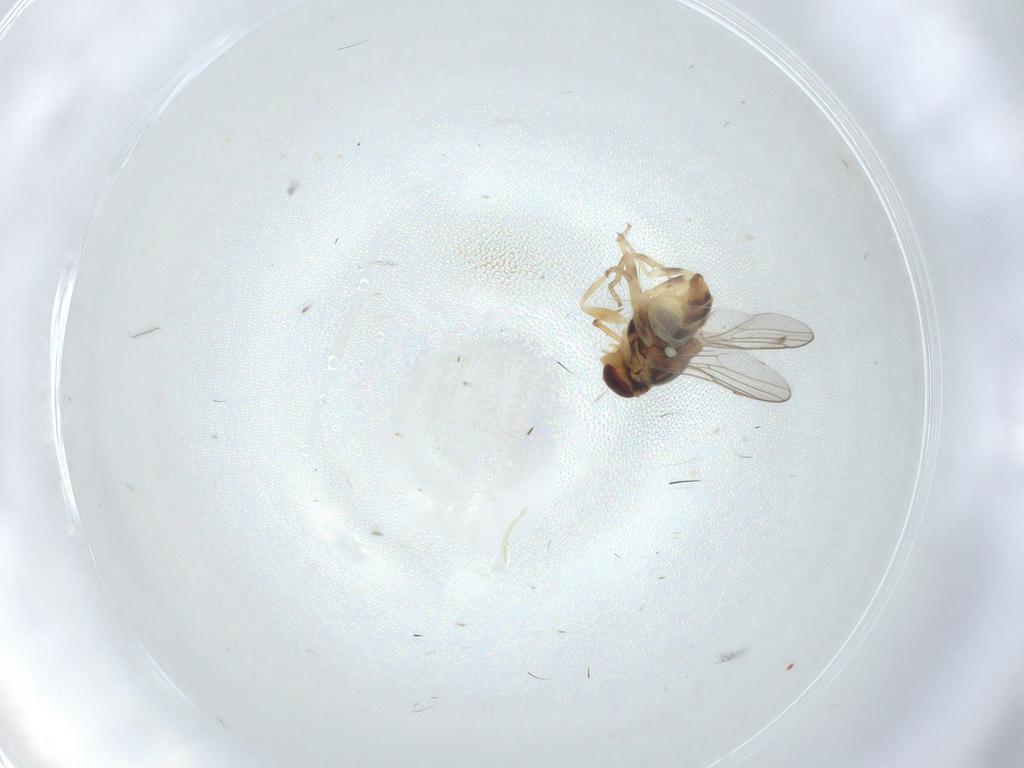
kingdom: Animalia
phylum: Arthropoda
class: Insecta
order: Diptera
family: Chloropidae
